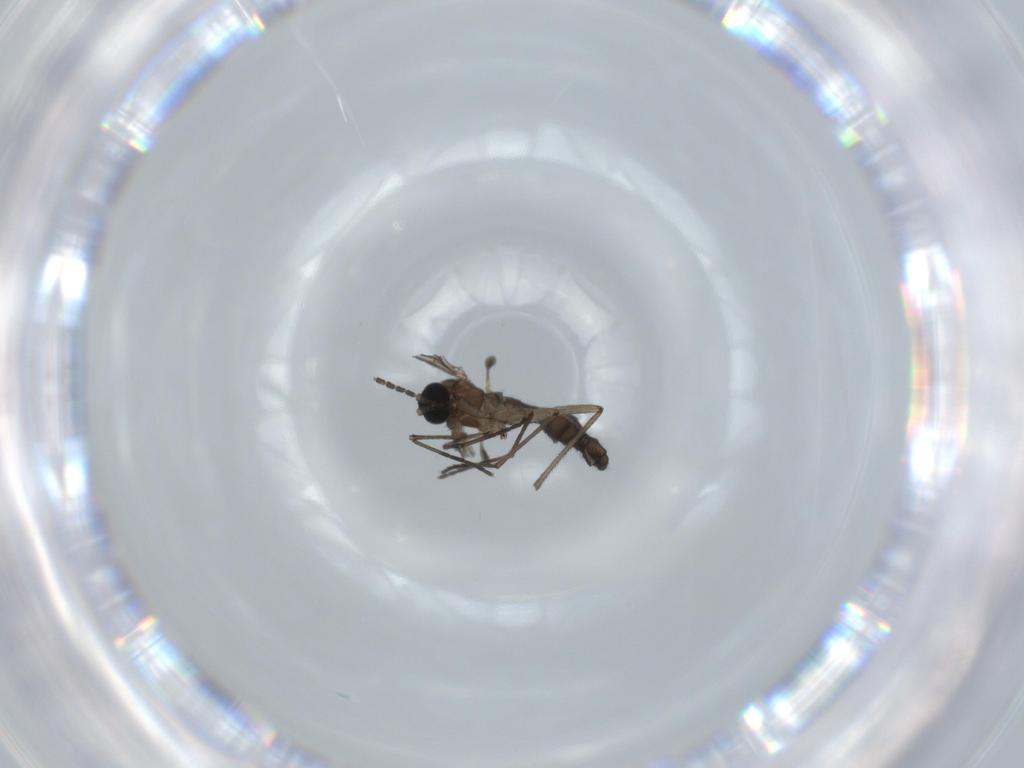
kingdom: Animalia
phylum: Arthropoda
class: Insecta
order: Diptera
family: Sciaridae
